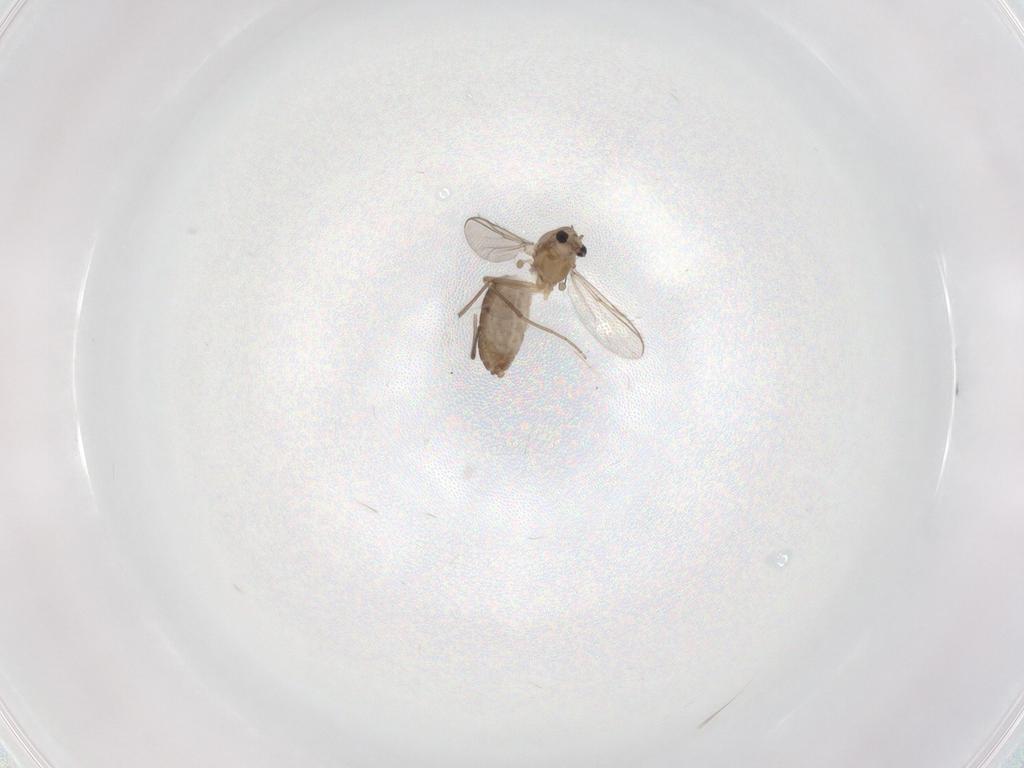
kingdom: Animalia
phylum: Arthropoda
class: Insecta
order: Diptera
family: Chironomidae
